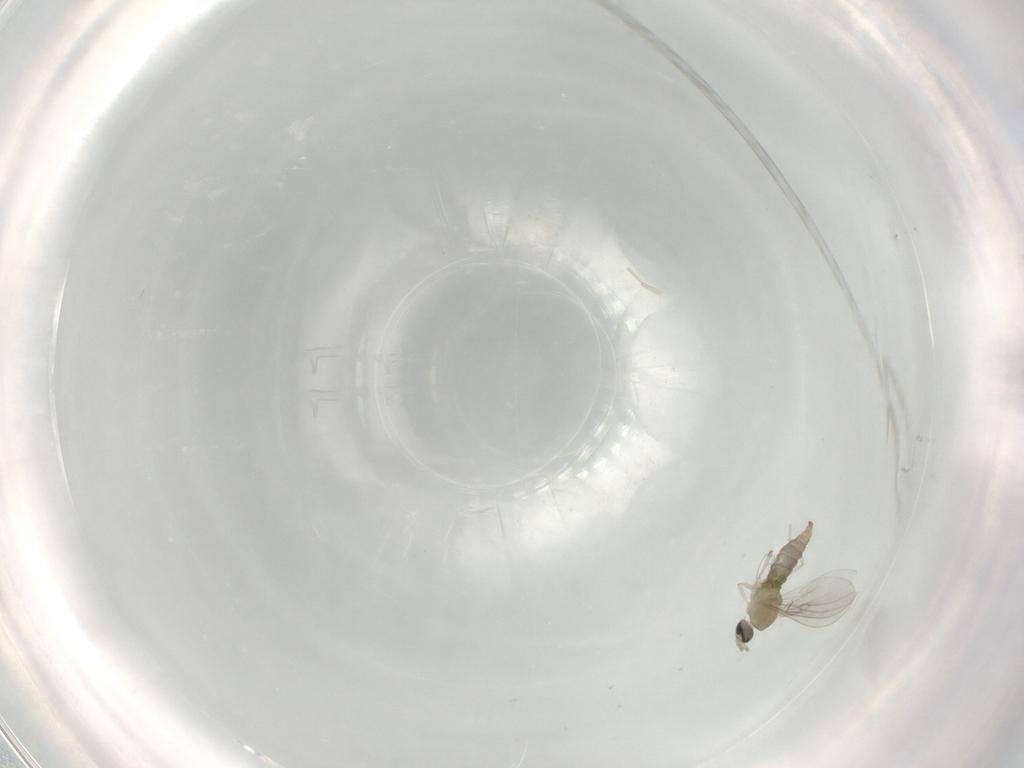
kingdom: Animalia
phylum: Arthropoda
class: Insecta
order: Diptera
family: Cecidomyiidae
